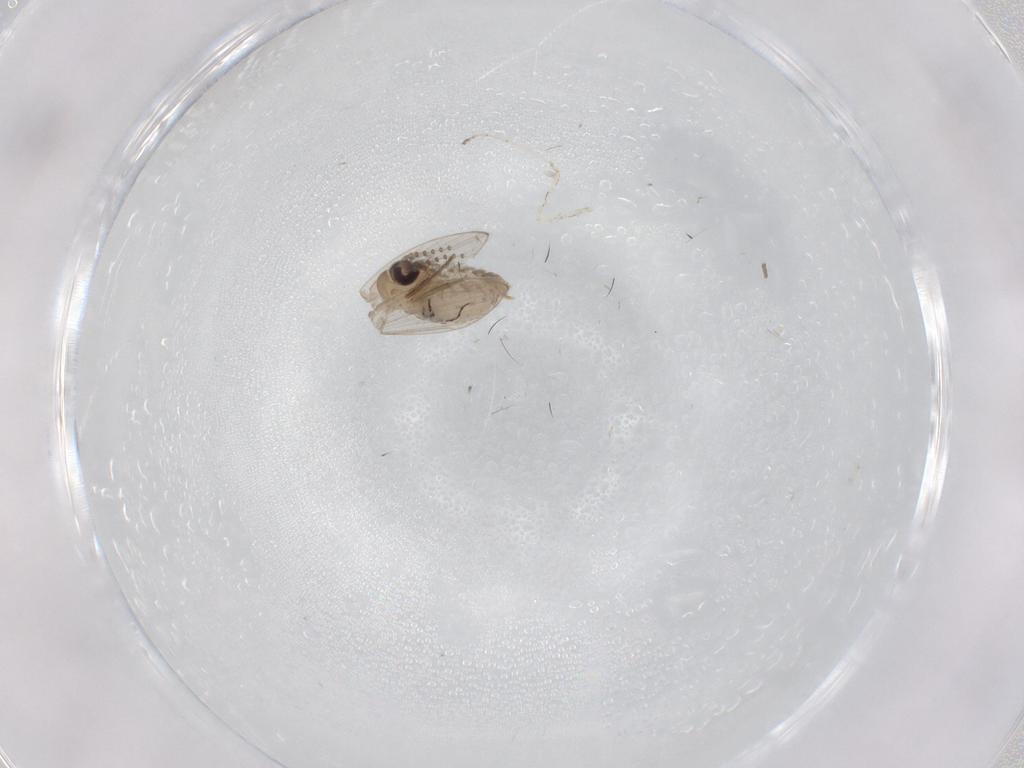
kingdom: Animalia
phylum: Arthropoda
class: Insecta
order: Diptera
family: Psychodidae
